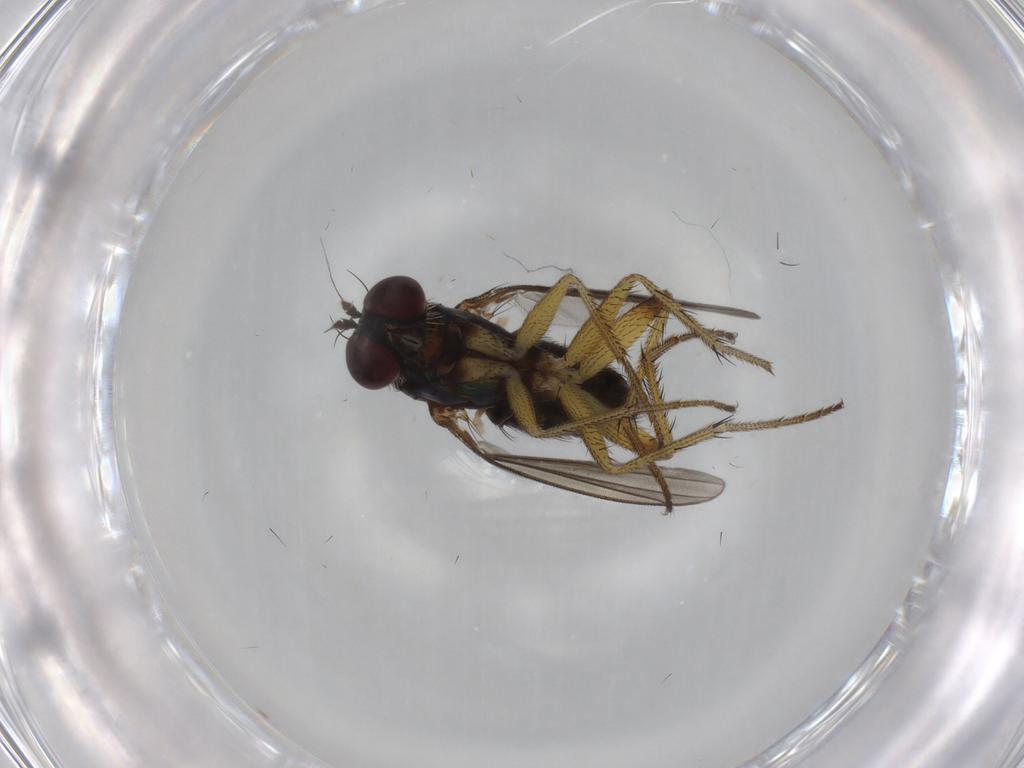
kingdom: Animalia
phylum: Arthropoda
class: Insecta
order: Diptera
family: Dolichopodidae
